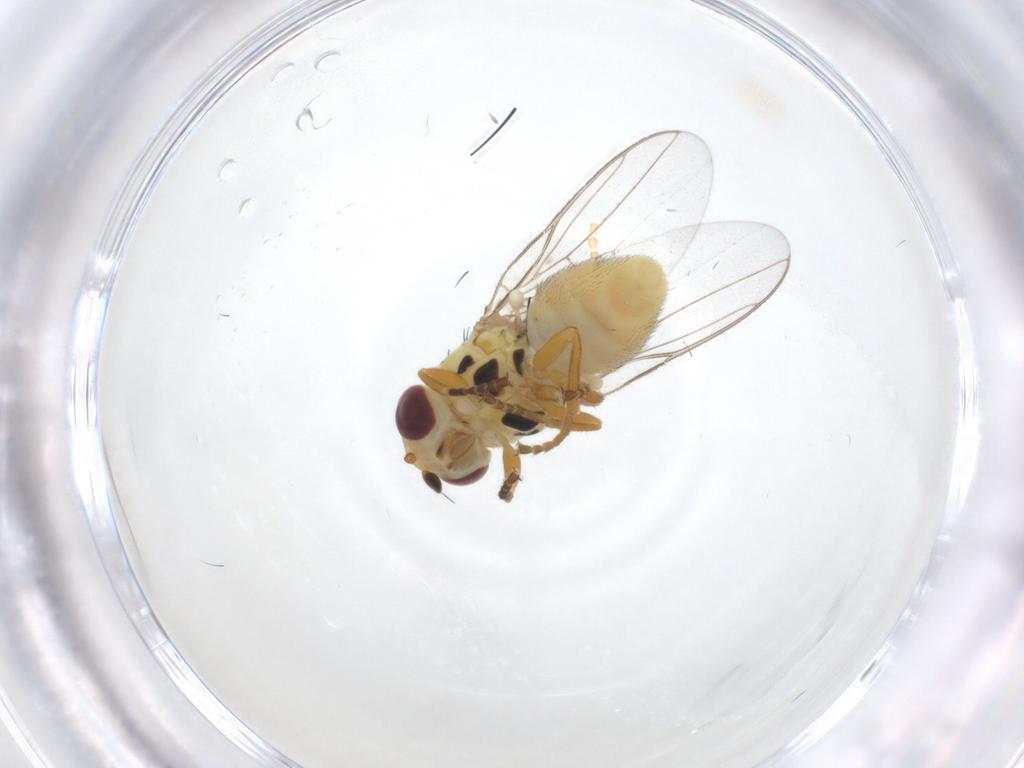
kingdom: Animalia
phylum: Arthropoda
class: Insecta
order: Diptera
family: Chloropidae
